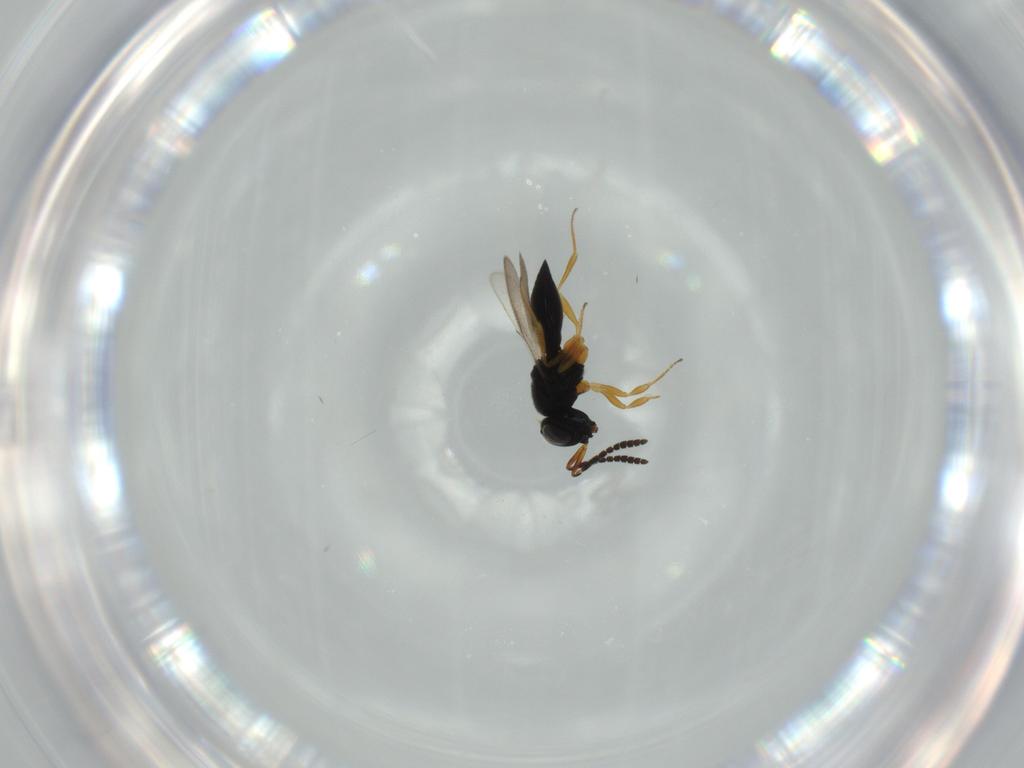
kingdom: Animalia
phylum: Arthropoda
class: Insecta
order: Hymenoptera
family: Scelionidae
